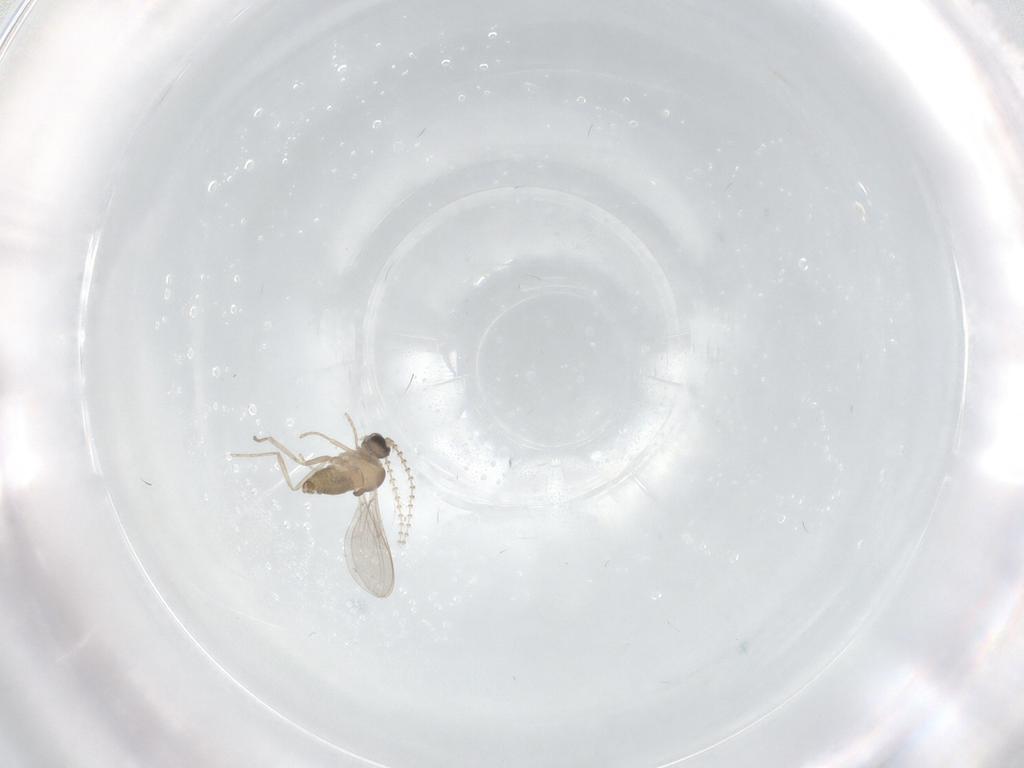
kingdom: Animalia
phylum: Arthropoda
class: Insecta
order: Diptera
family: Cecidomyiidae
